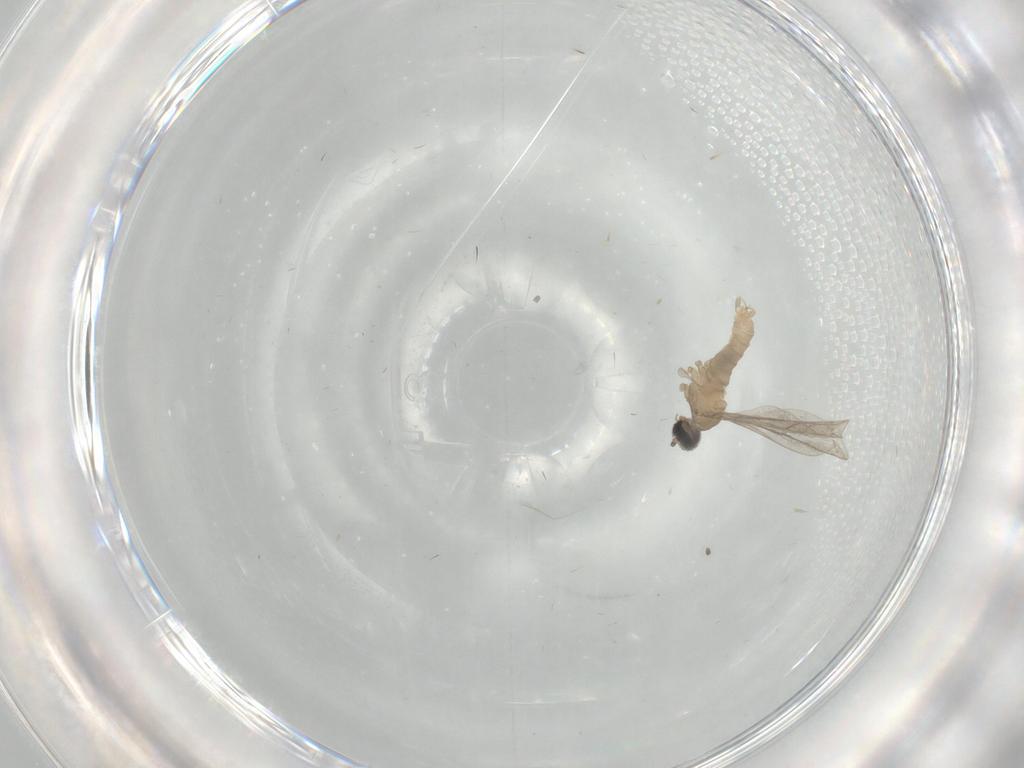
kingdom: Animalia
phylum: Arthropoda
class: Insecta
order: Diptera
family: Cecidomyiidae
